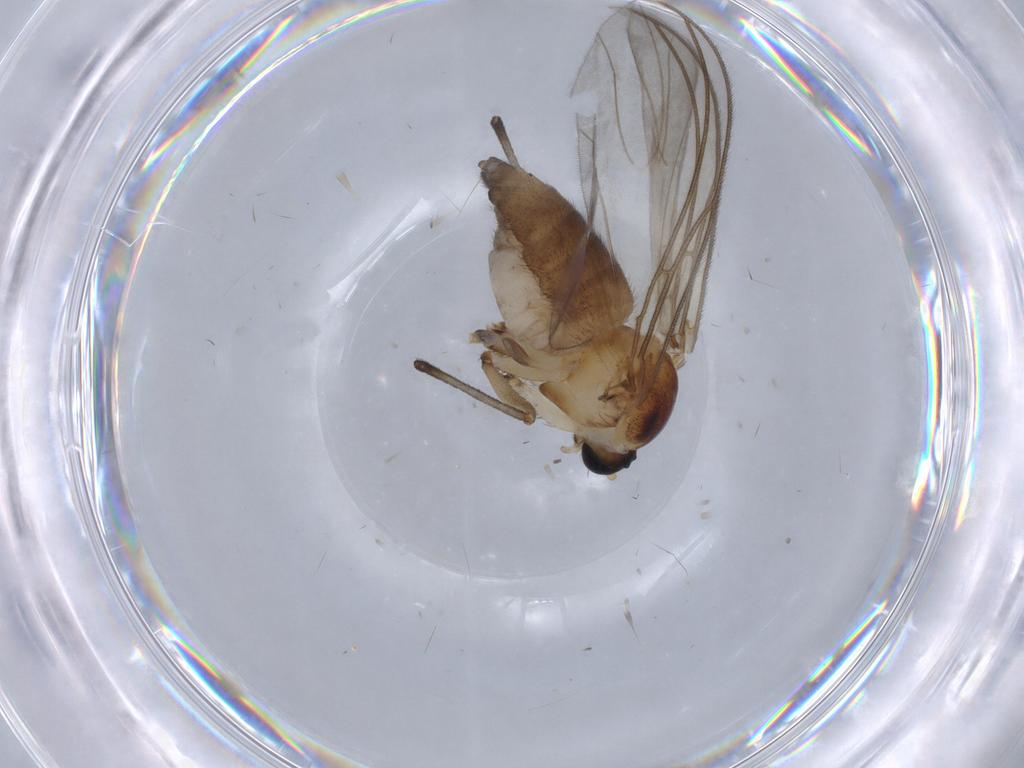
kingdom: Animalia
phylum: Arthropoda
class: Insecta
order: Diptera
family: Sciaridae
